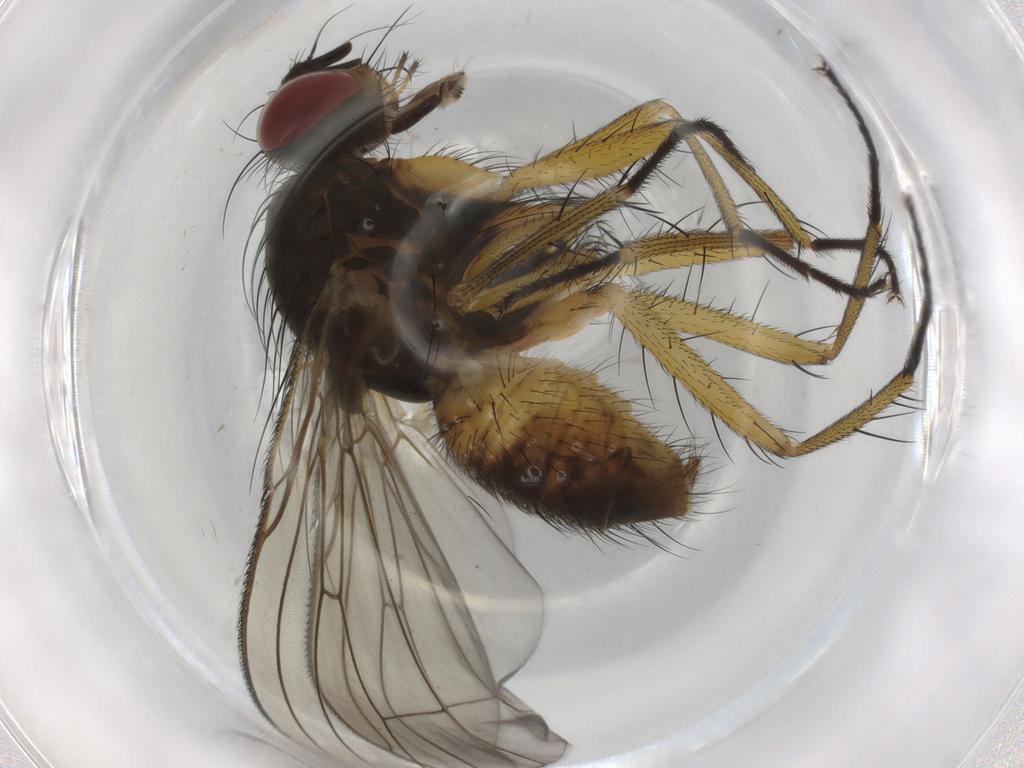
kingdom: Animalia
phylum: Arthropoda
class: Insecta
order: Diptera
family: Muscidae
